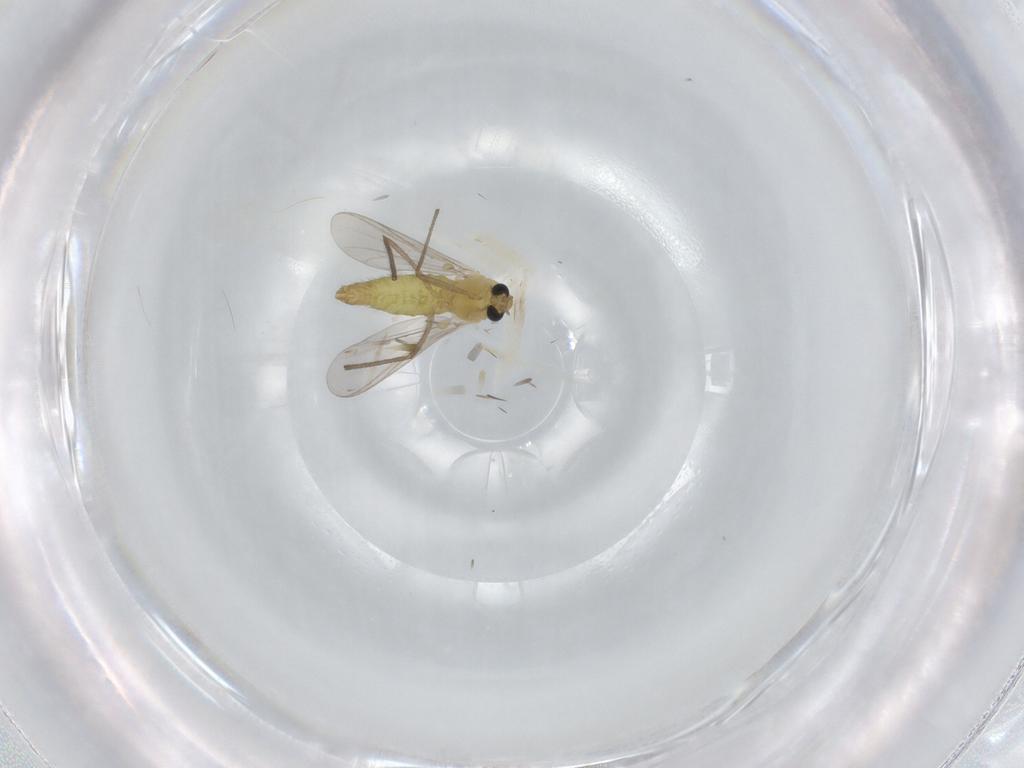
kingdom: Animalia
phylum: Arthropoda
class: Insecta
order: Diptera
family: Chironomidae
